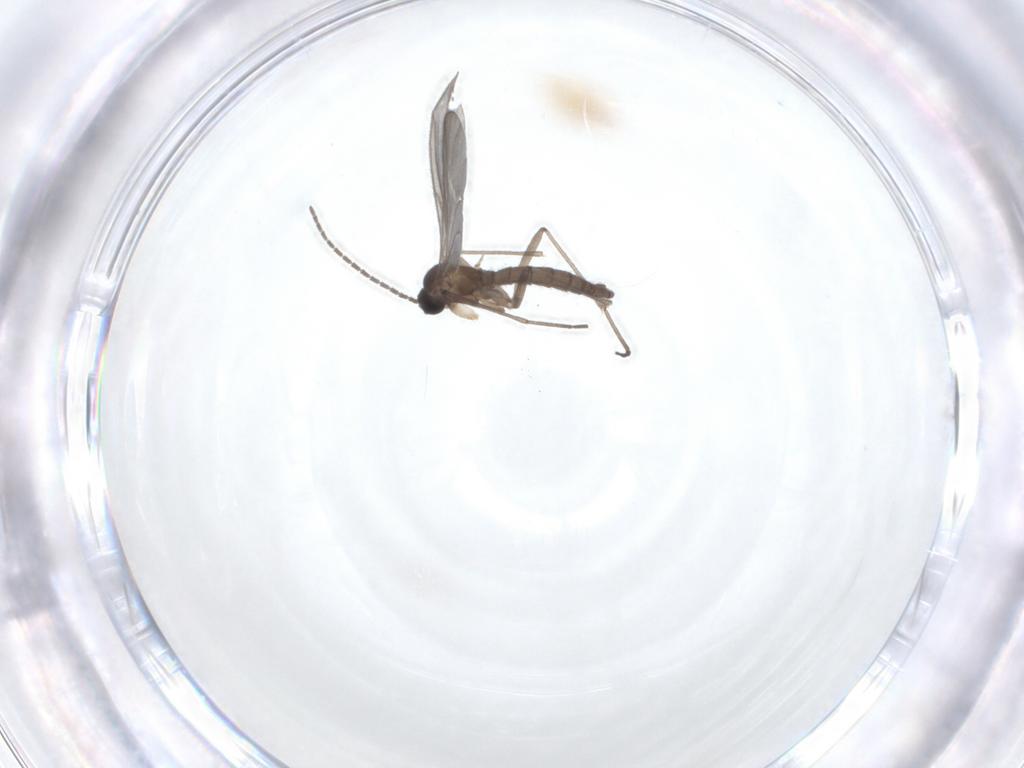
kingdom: Animalia
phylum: Arthropoda
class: Insecta
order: Diptera
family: Sciaridae
